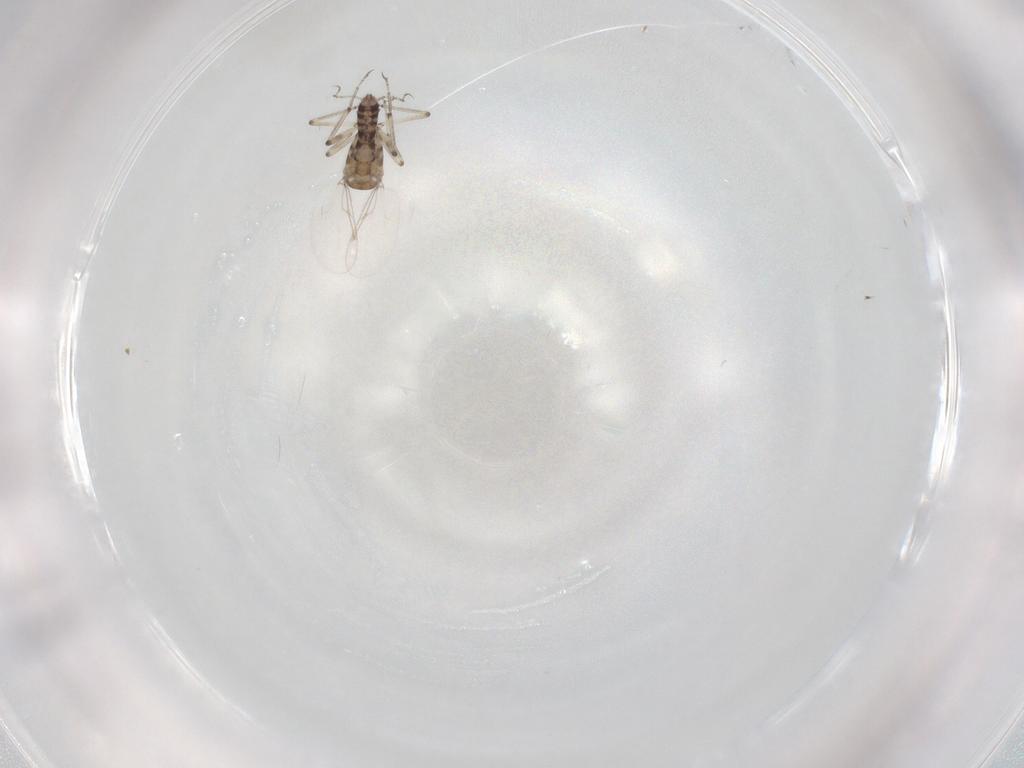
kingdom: Animalia
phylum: Arthropoda
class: Insecta
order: Diptera
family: Ceratopogonidae
